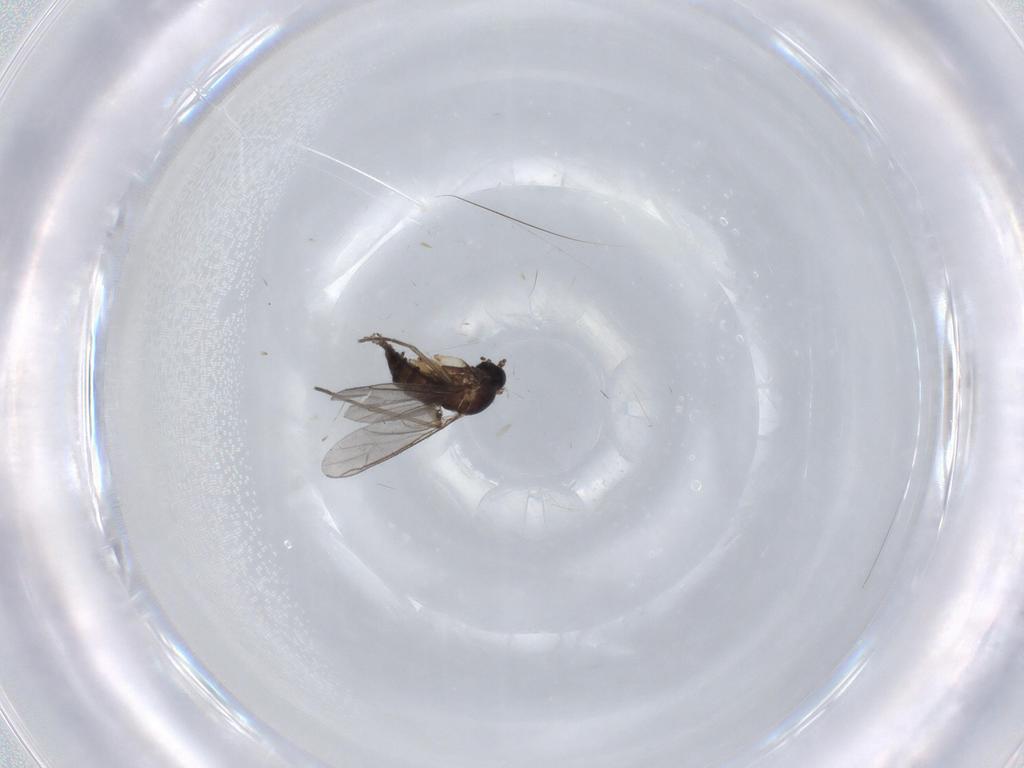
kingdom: Animalia
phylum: Arthropoda
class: Insecta
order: Diptera
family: Sciaridae
